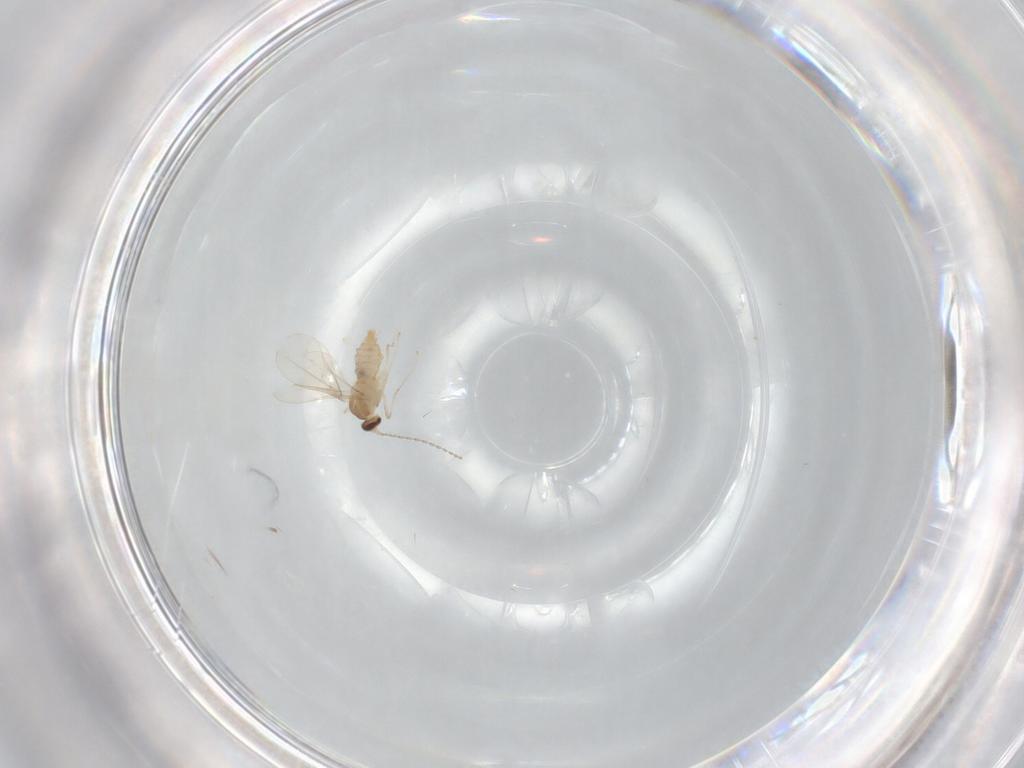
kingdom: Animalia
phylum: Arthropoda
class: Insecta
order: Diptera
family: Cecidomyiidae
